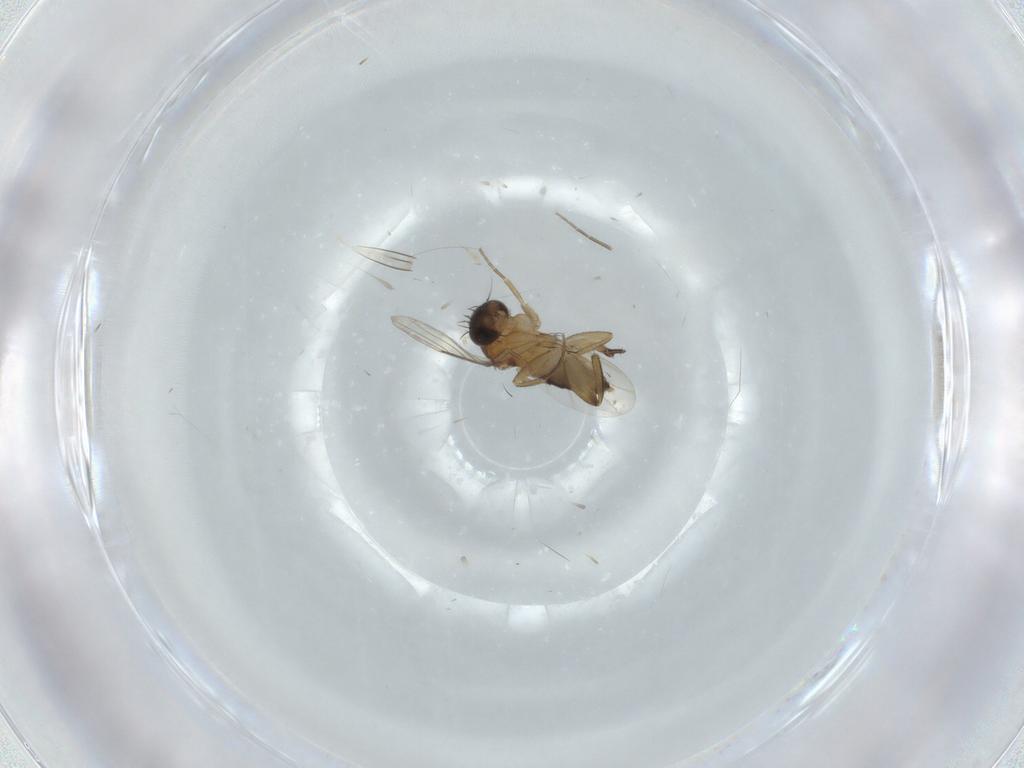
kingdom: Animalia
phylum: Arthropoda
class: Insecta
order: Diptera
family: Phoridae
